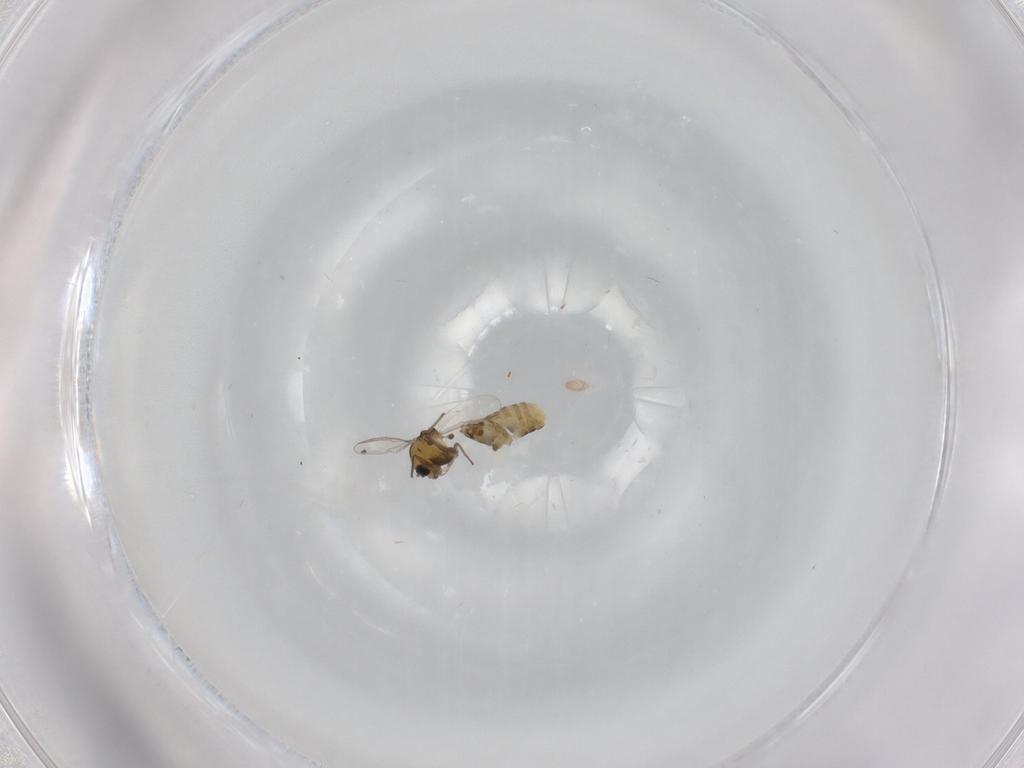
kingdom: Animalia
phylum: Arthropoda
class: Insecta
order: Diptera
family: Chironomidae
